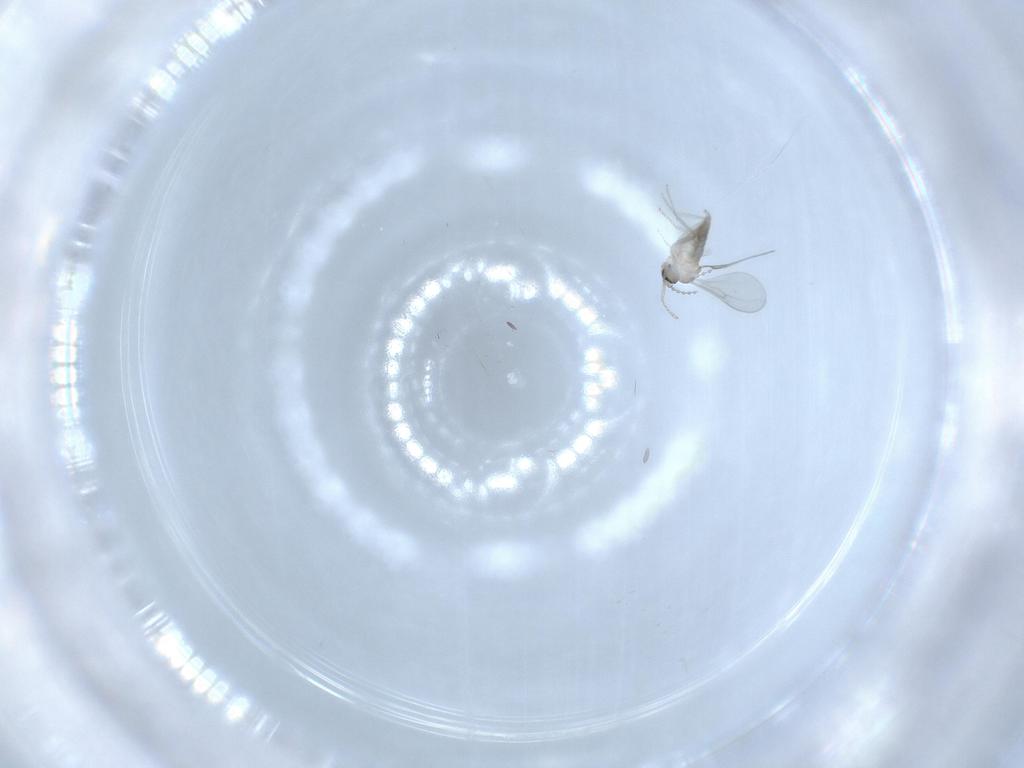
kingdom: Animalia
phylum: Arthropoda
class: Insecta
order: Diptera
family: Cecidomyiidae
